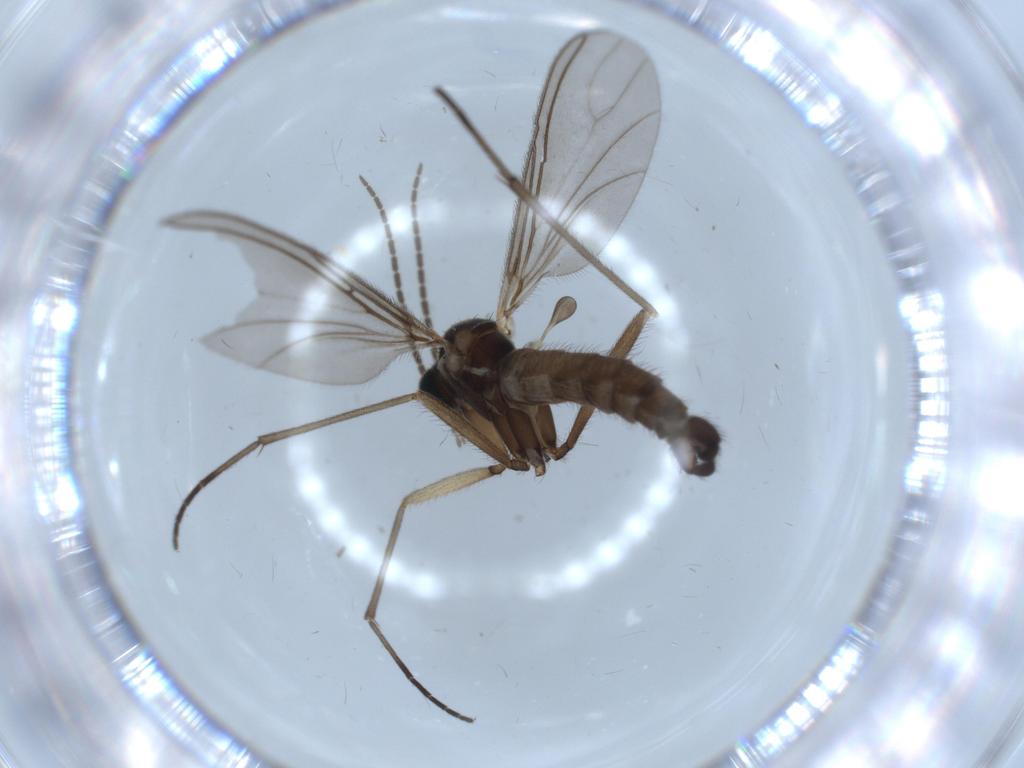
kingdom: Animalia
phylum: Arthropoda
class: Insecta
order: Diptera
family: Sciaridae
